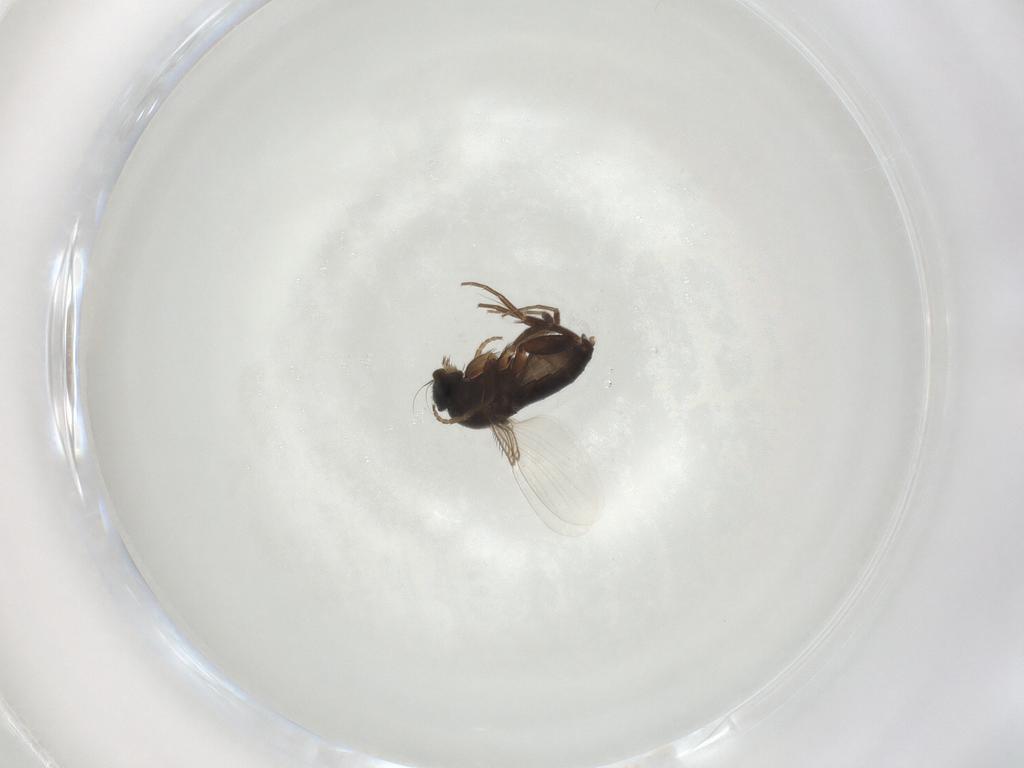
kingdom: Animalia
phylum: Arthropoda
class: Insecta
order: Diptera
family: Phoridae
